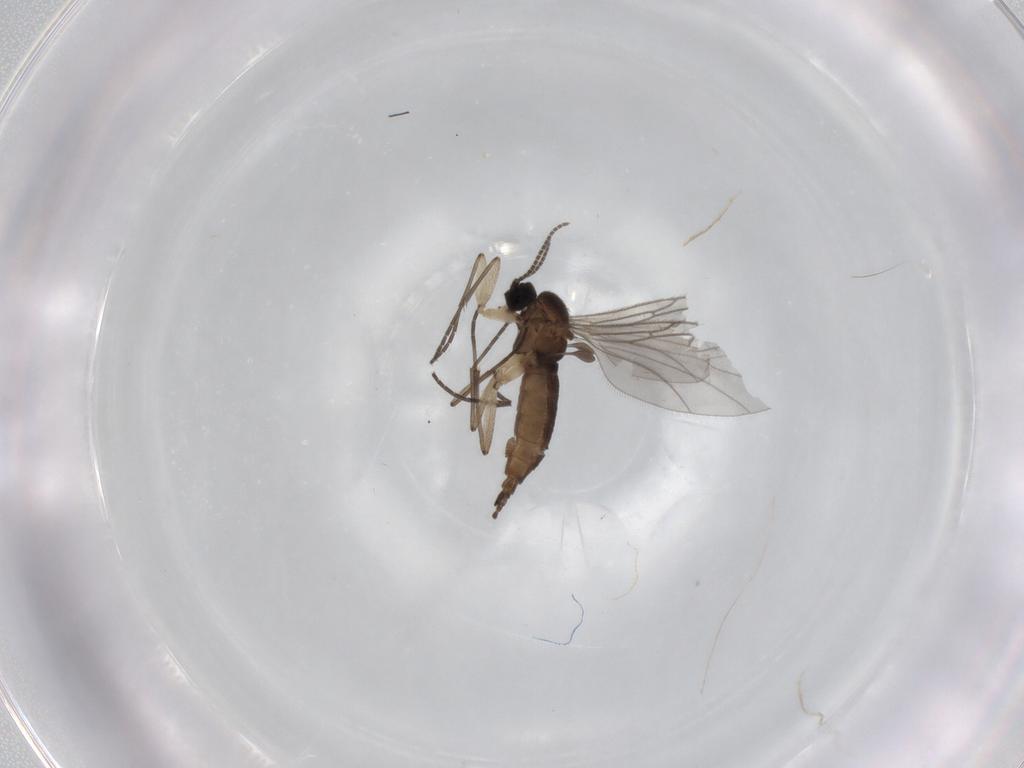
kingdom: Animalia
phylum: Arthropoda
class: Insecta
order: Diptera
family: Sciaridae
